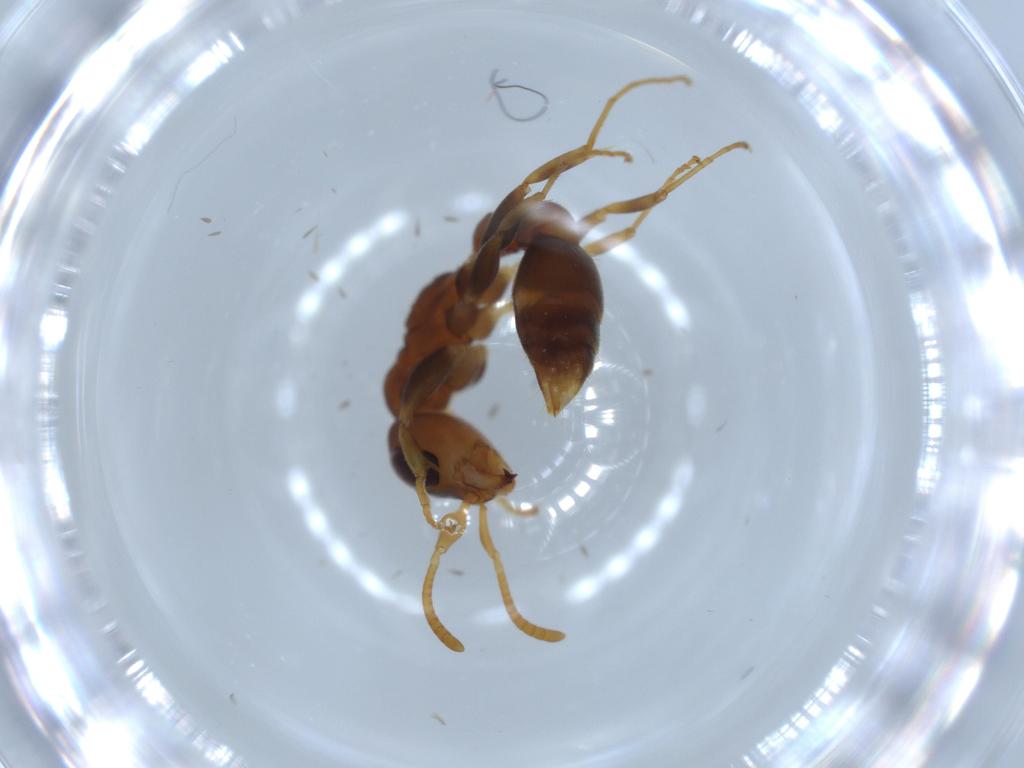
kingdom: Animalia
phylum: Arthropoda
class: Insecta
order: Hymenoptera
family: Formicidae
